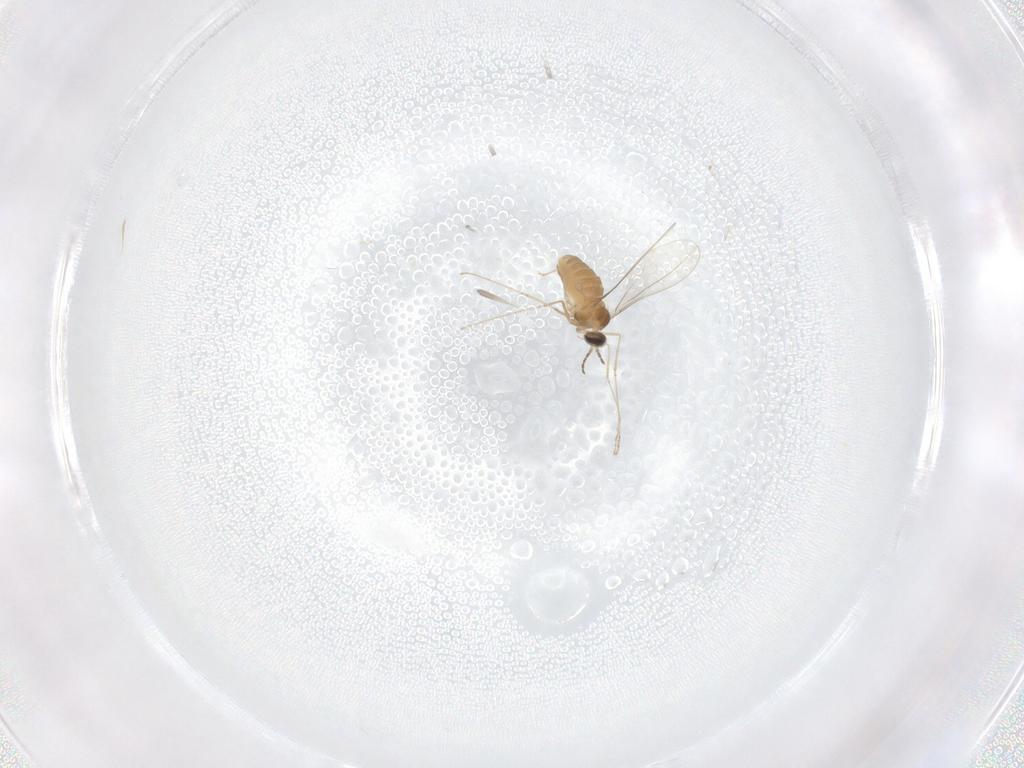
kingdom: Animalia
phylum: Arthropoda
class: Insecta
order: Diptera
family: Cecidomyiidae
